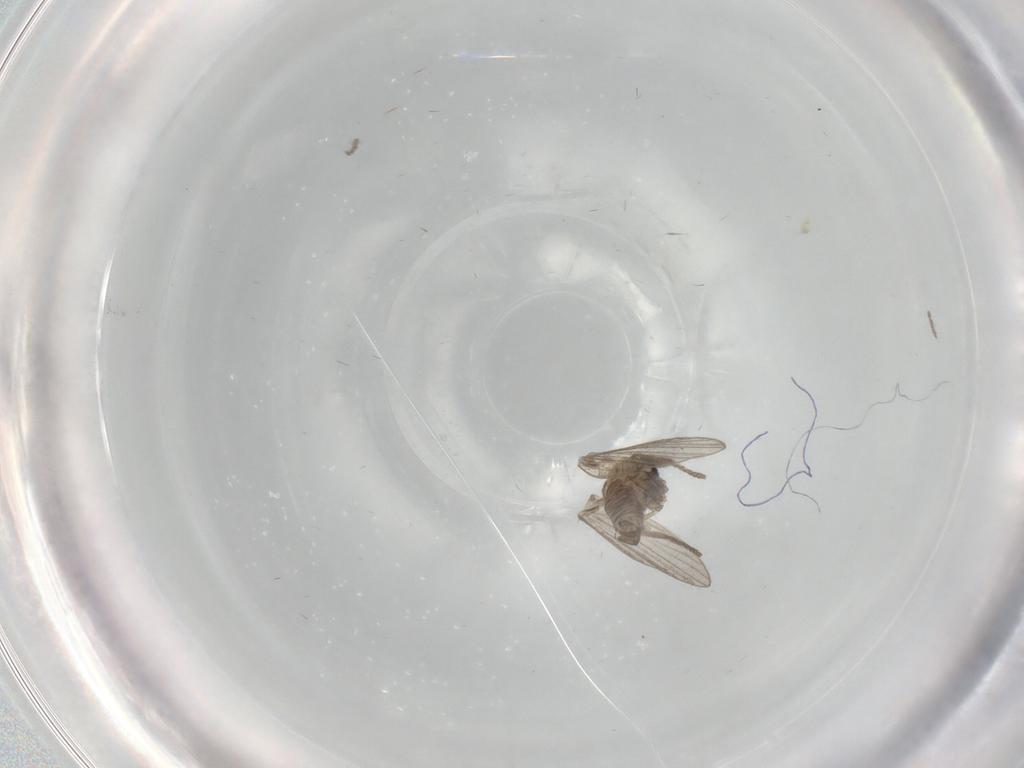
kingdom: Animalia
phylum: Arthropoda
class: Insecta
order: Diptera
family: Psychodidae
